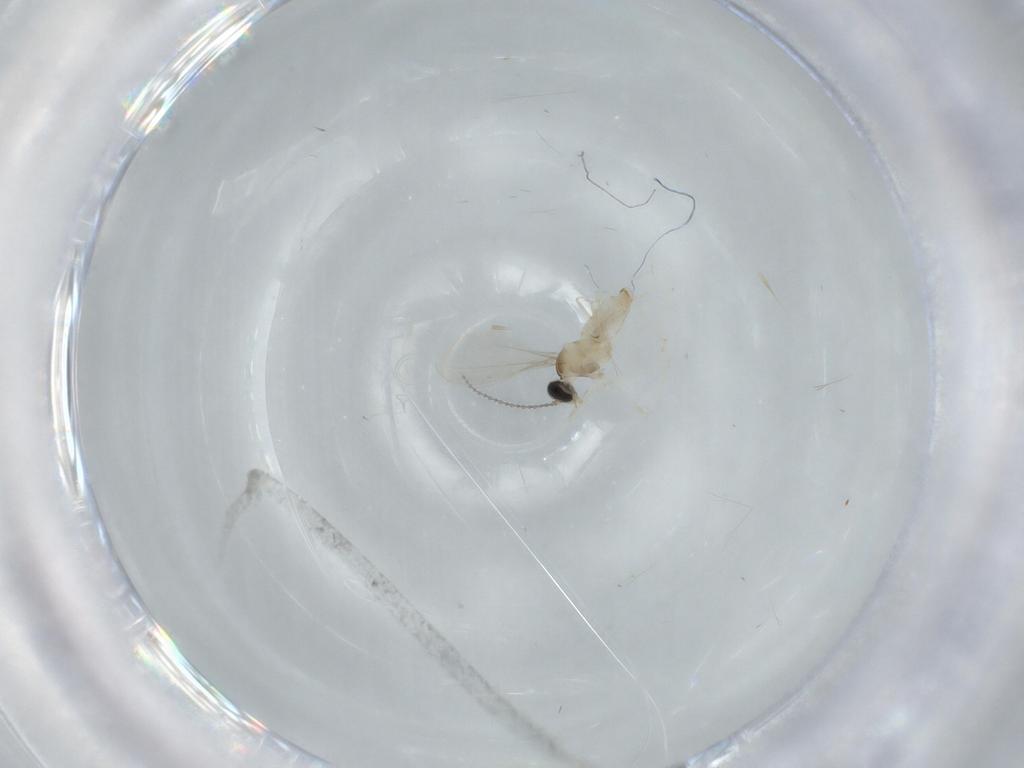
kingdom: Animalia
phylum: Arthropoda
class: Insecta
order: Diptera
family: Cecidomyiidae
